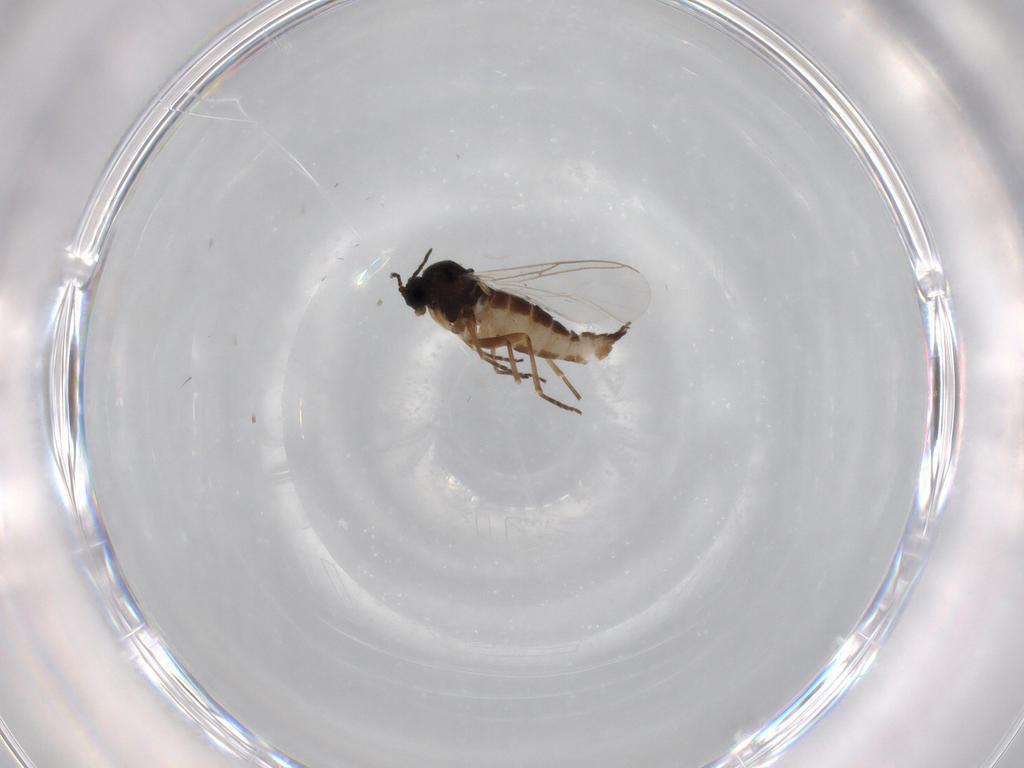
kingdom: Animalia
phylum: Arthropoda
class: Insecta
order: Diptera
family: Sciaridae
